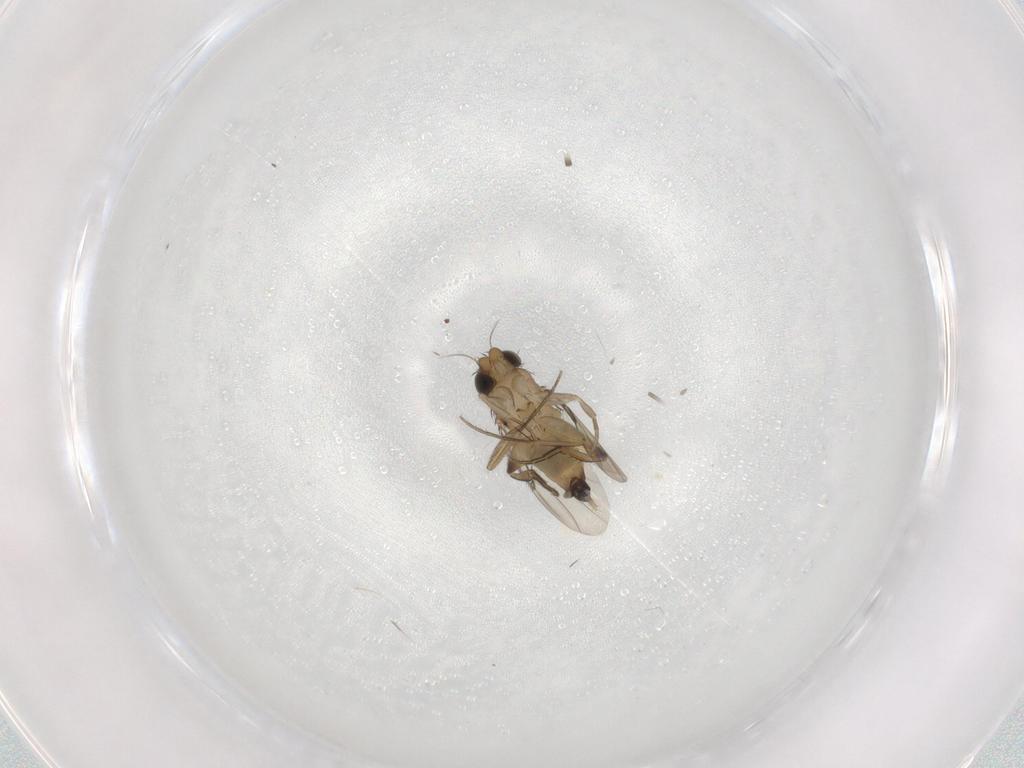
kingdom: Animalia
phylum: Arthropoda
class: Insecta
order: Diptera
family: Phoridae
